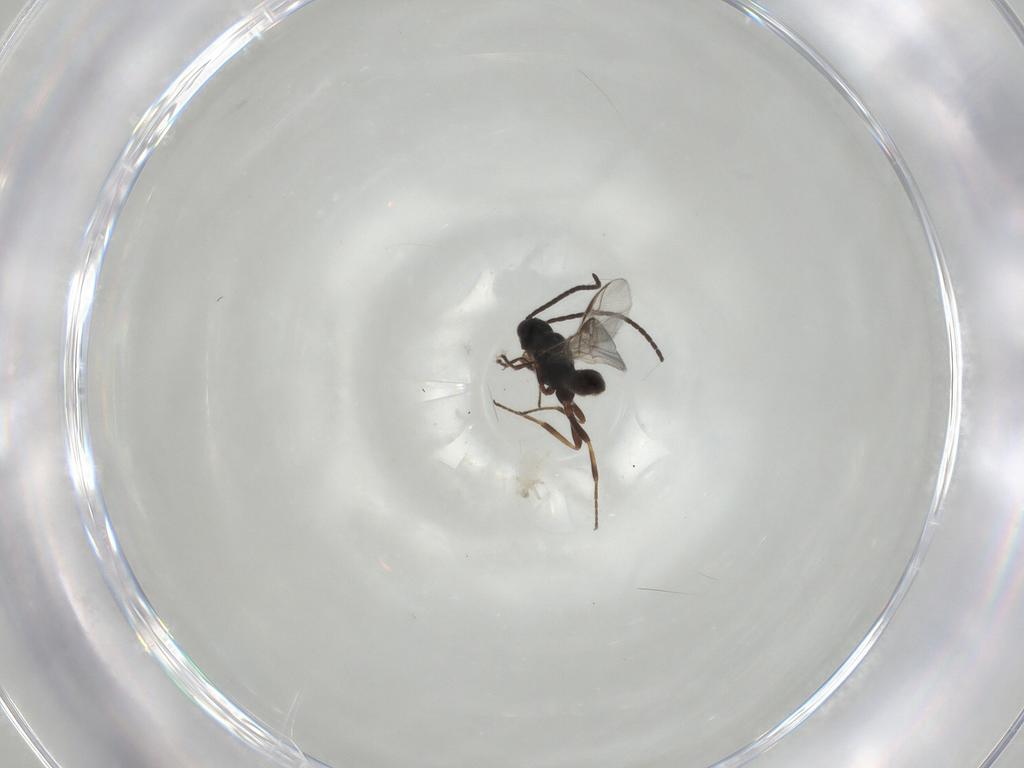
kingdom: Animalia
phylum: Arthropoda
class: Insecta
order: Hymenoptera
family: Braconidae
